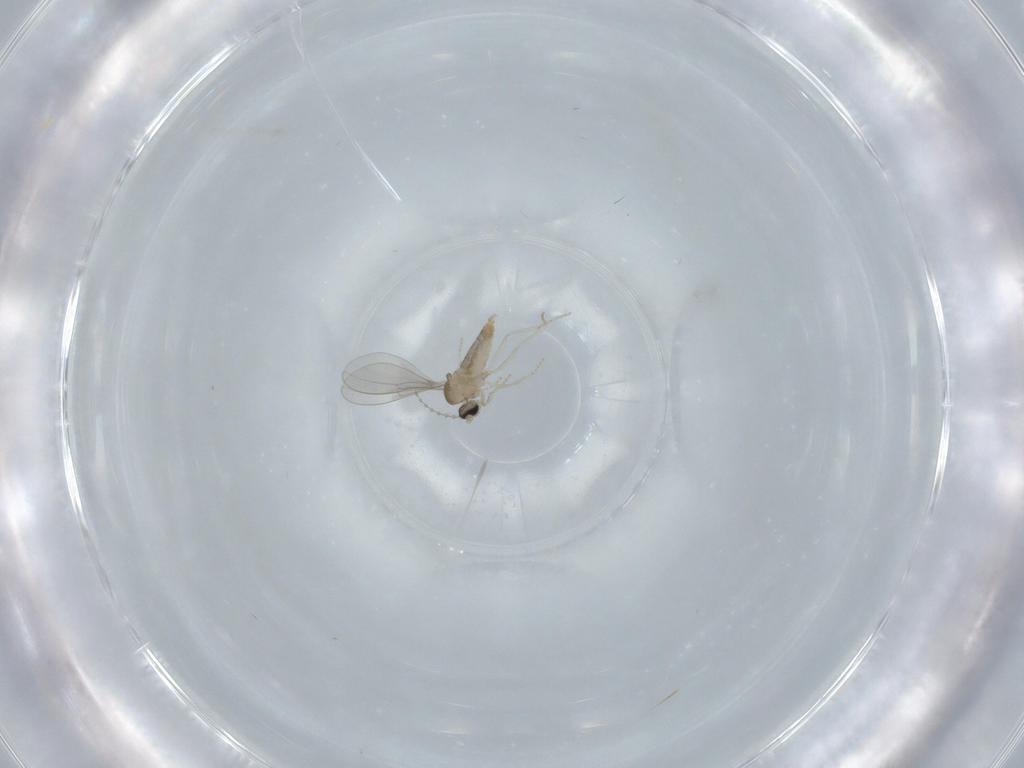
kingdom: Animalia
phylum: Arthropoda
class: Insecta
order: Diptera
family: Cecidomyiidae
